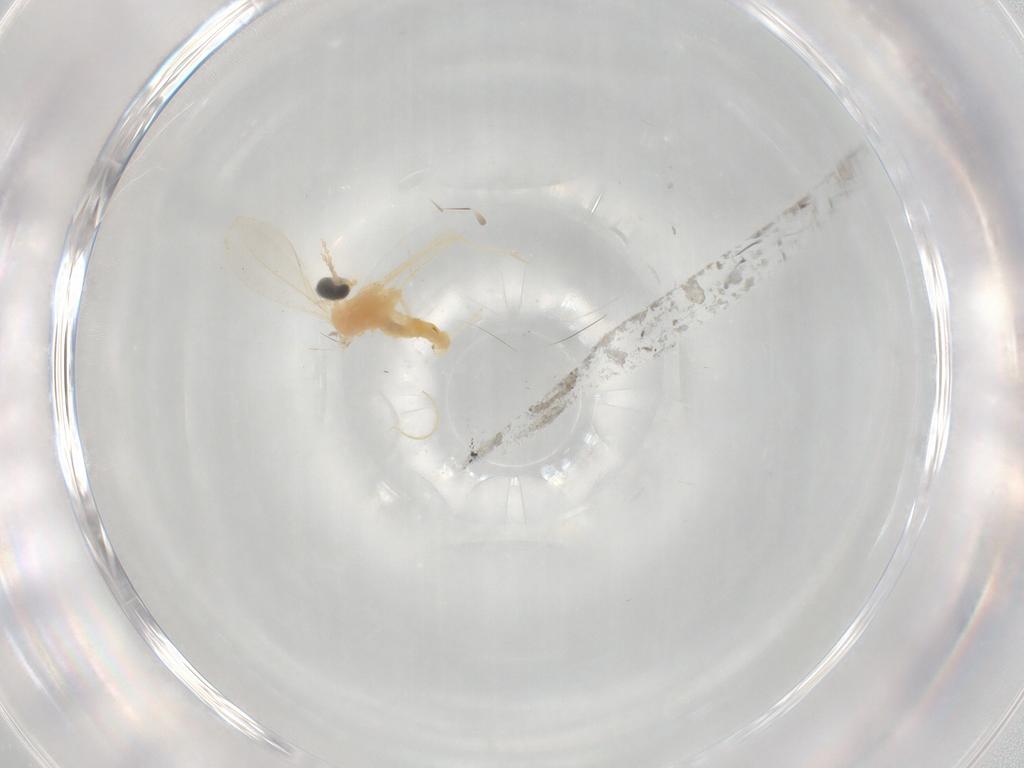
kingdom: Animalia
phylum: Arthropoda
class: Insecta
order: Diptera
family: Cecidomyiidae
